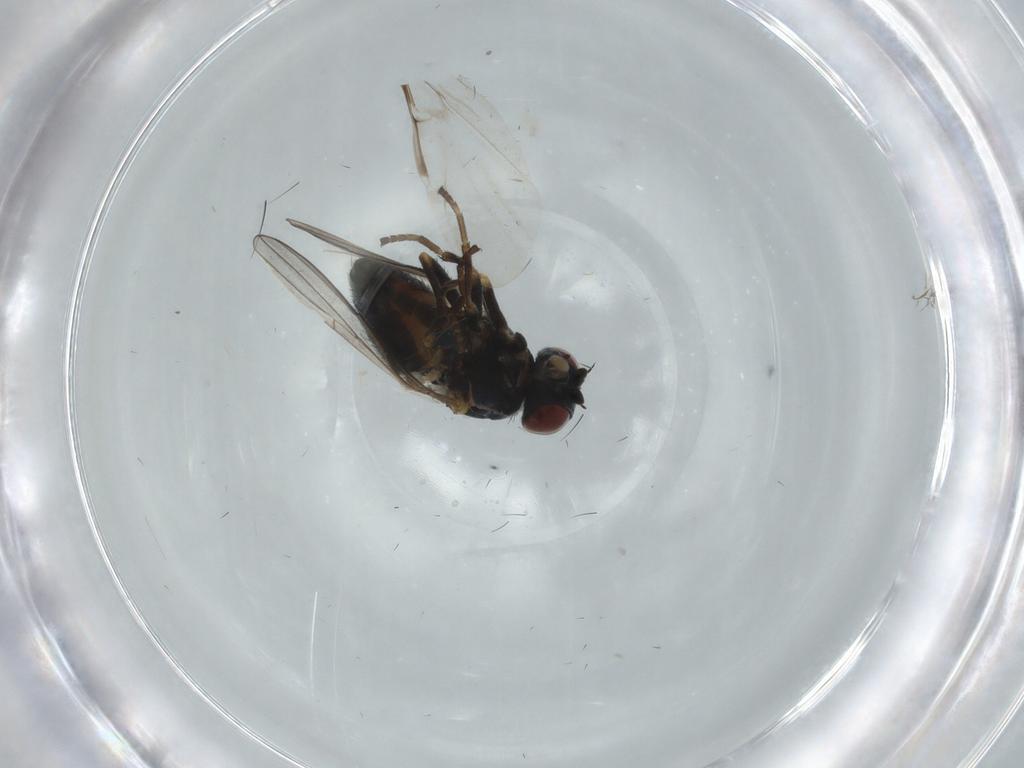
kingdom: Animalia
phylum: Arthropoda
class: Insecta
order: Diptera
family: Chamaemyiidae
